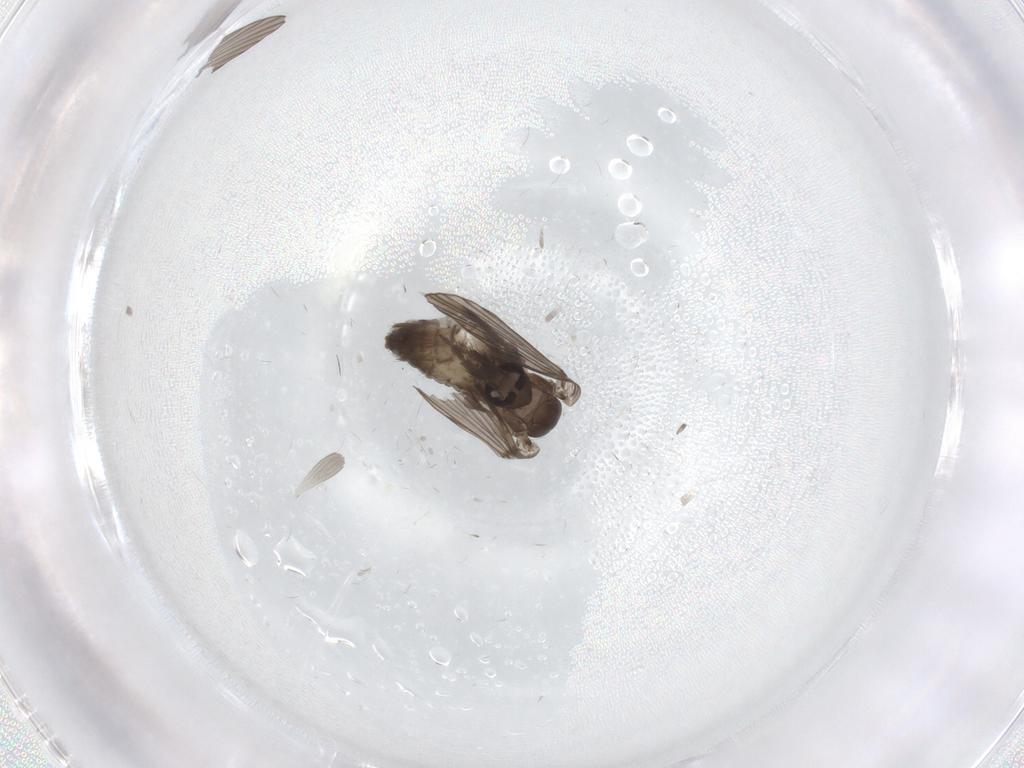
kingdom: Animalia
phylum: Arthropoda
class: Insecta
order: Diptera
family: Psychodidae
